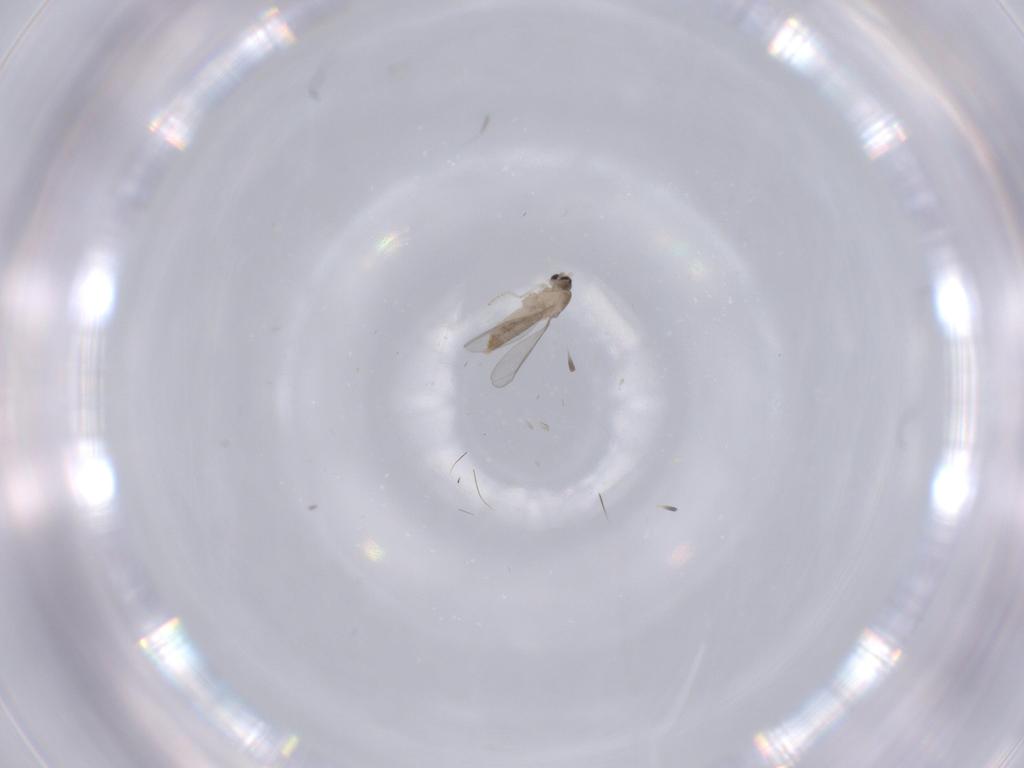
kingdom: Animalia
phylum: Arthropoda
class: Insecta
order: Diptera
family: Sciaridae
